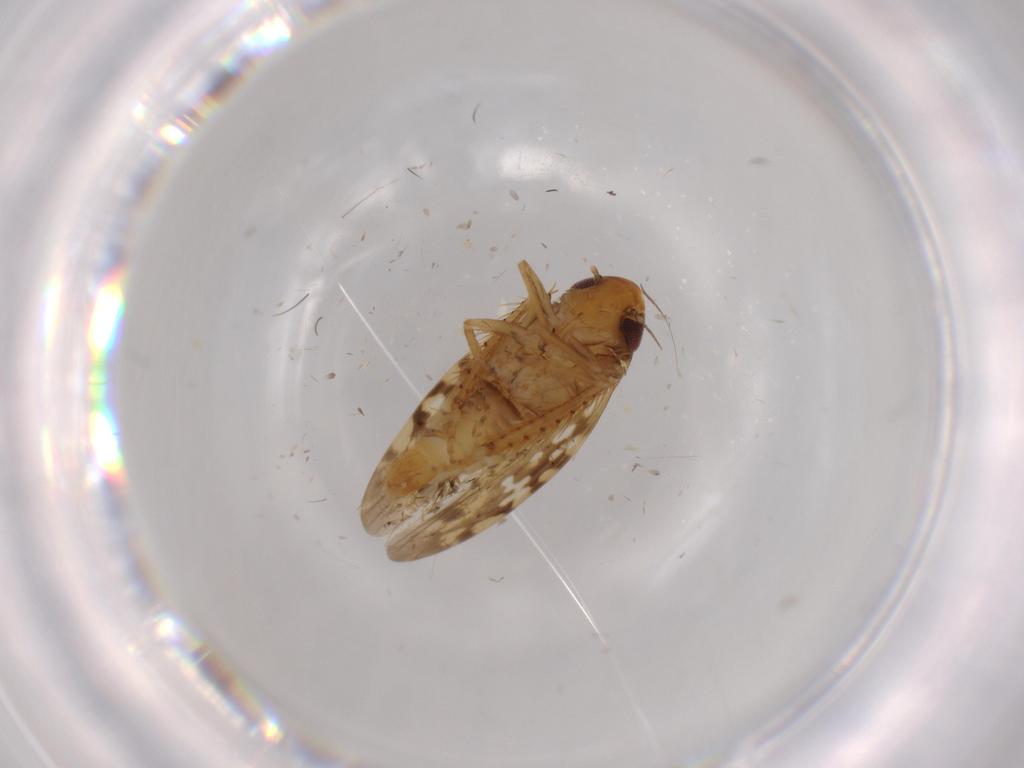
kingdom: Animalia
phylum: Arthropoda
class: Insecta
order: Hemiptera
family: Cicadellidae
